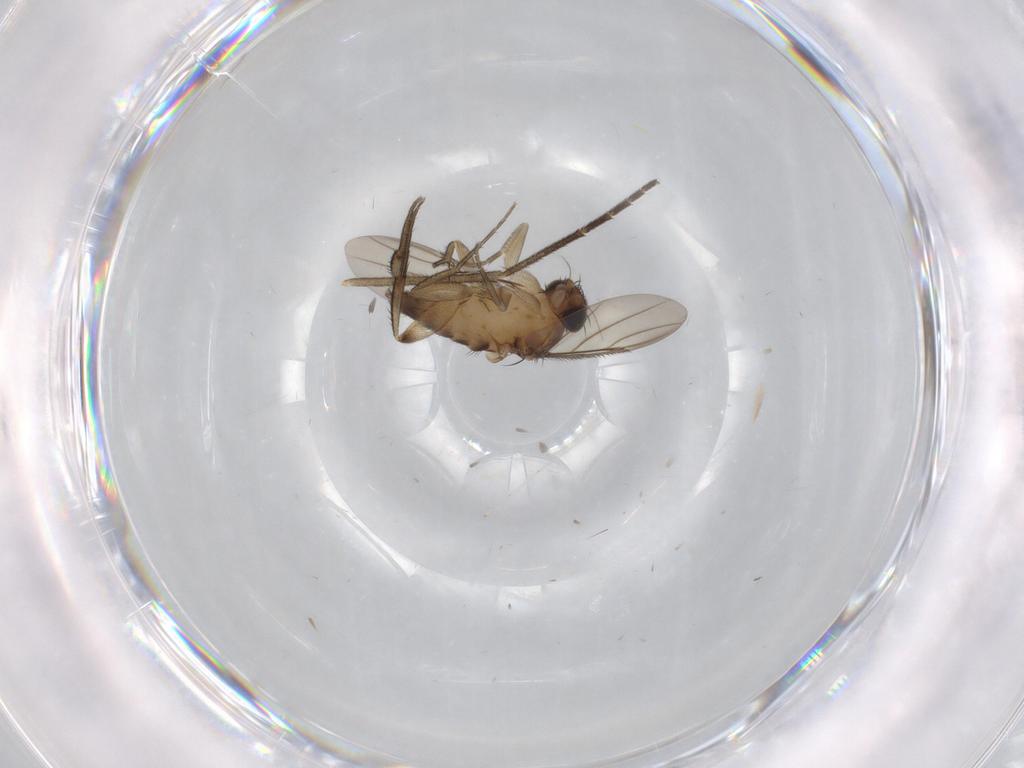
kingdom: Animalia
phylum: Arthropoda
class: Insecta
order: Diptera
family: Sciaridae
